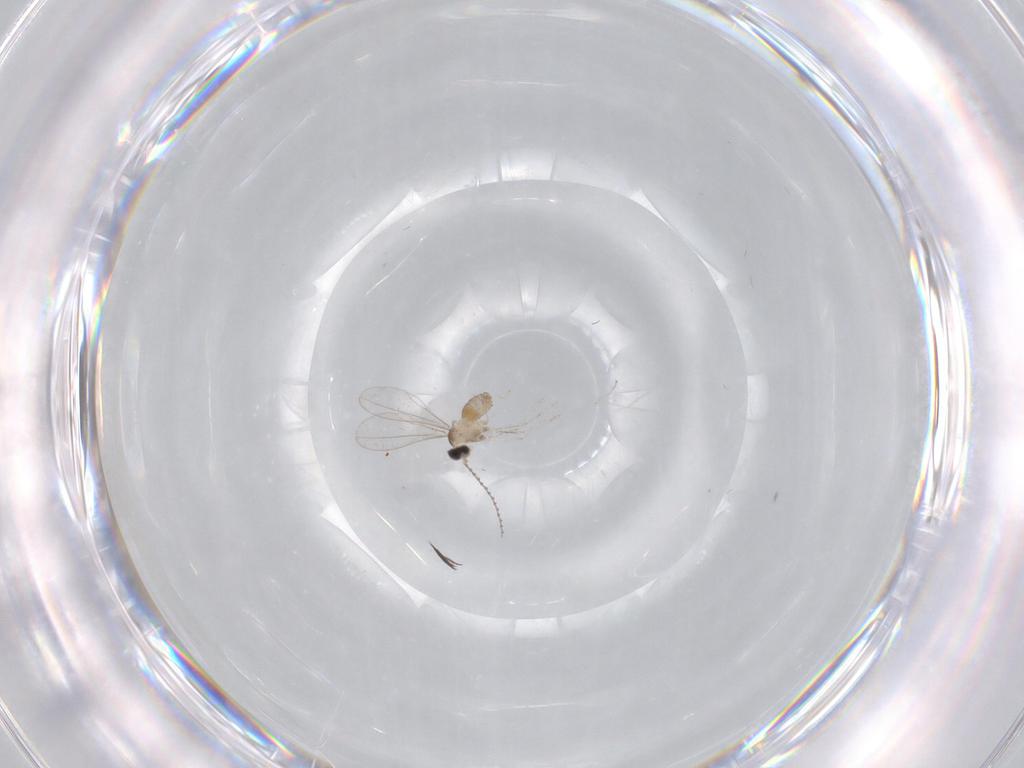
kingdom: Animalia
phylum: Arthropoda
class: Insecta
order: Diptera
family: Cecidomyiidae
